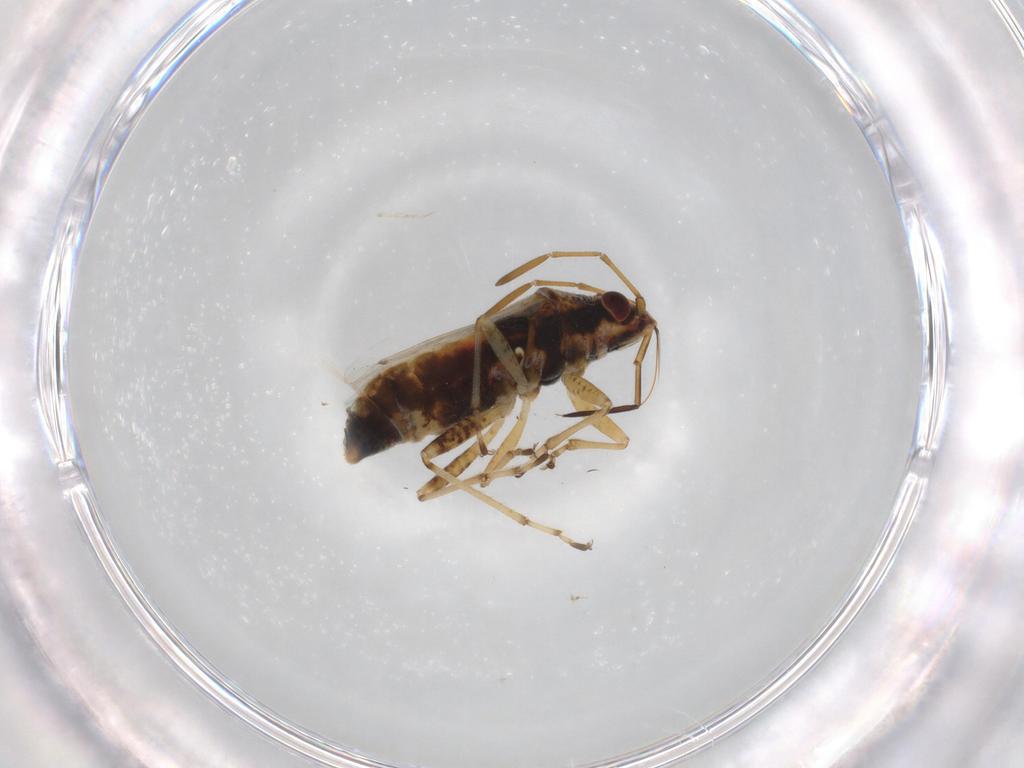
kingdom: Animalia
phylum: Arthropoda
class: Insecta
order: Hemiptera
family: Lygaeidae
